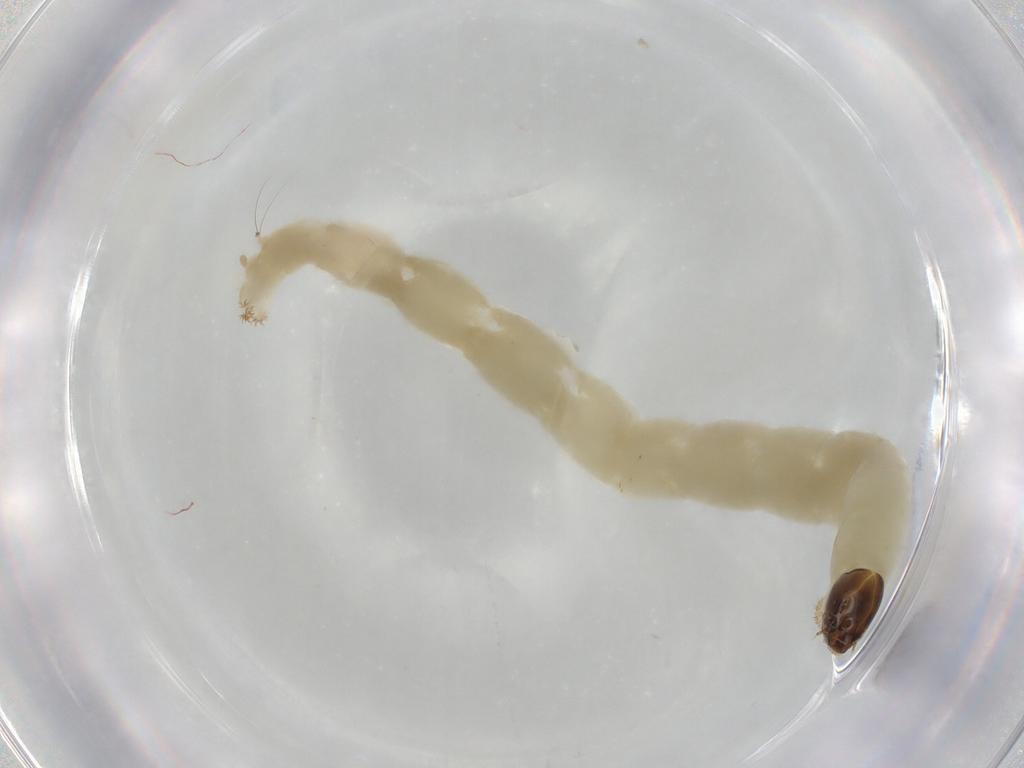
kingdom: Animalia
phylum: Arthropoda
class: Insecta
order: Diptera
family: Chironomidae
